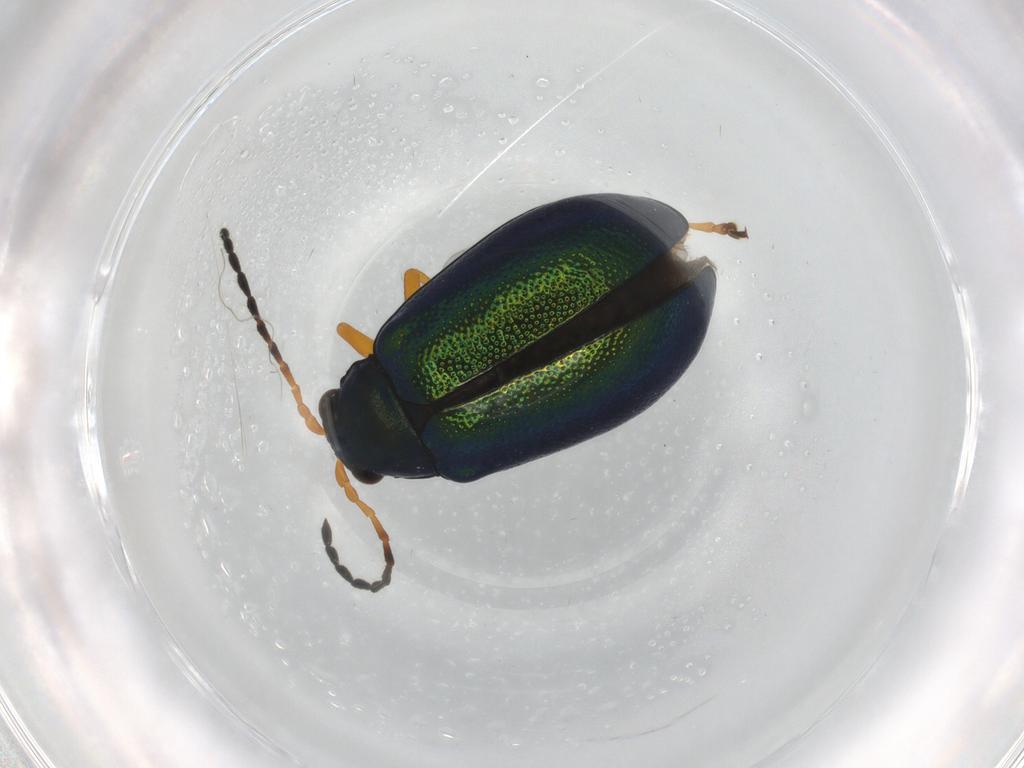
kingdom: Animalia
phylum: Arthropoda
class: Insecta
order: Coleoptera
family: Chrysomelidae
